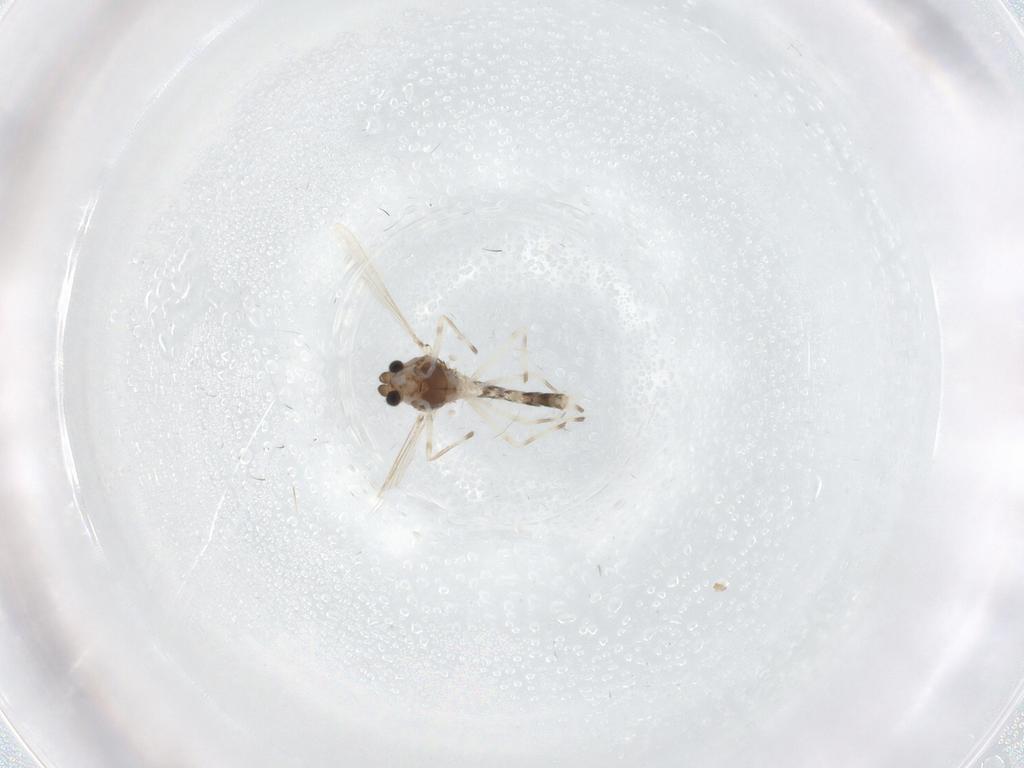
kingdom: Animalia
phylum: Arthropoda
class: Insecta
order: Diptera
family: Chironomidae
